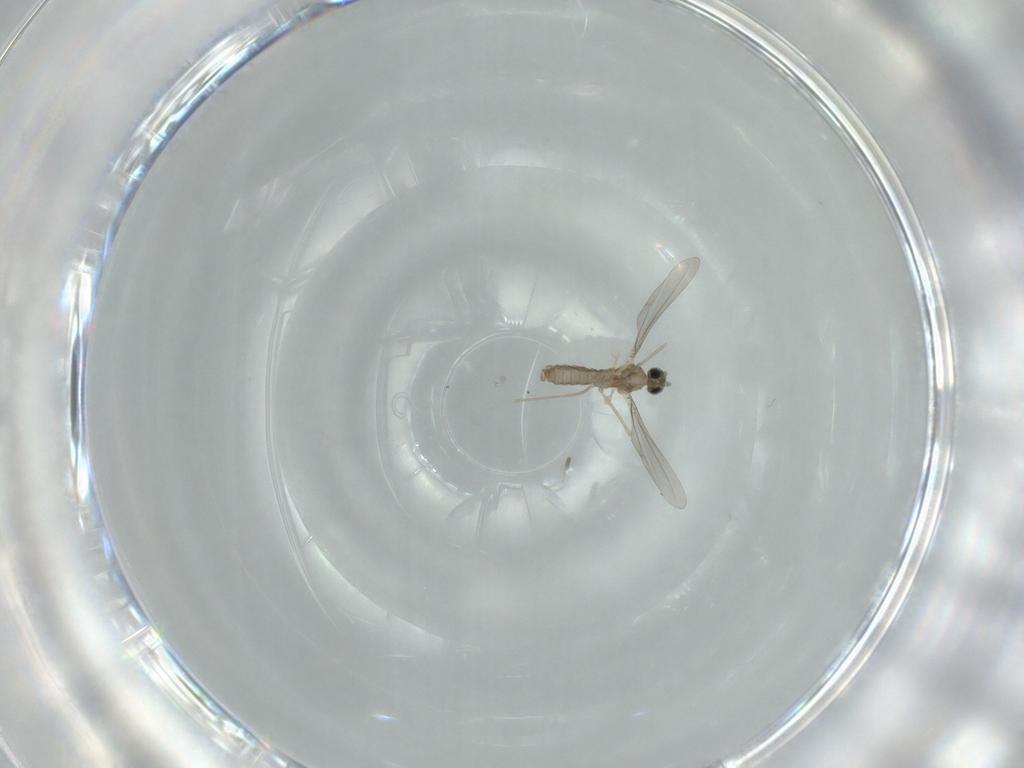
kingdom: Animalia
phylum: Arthropoda
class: Insecta
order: Diptera
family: Cecidomyiidae
